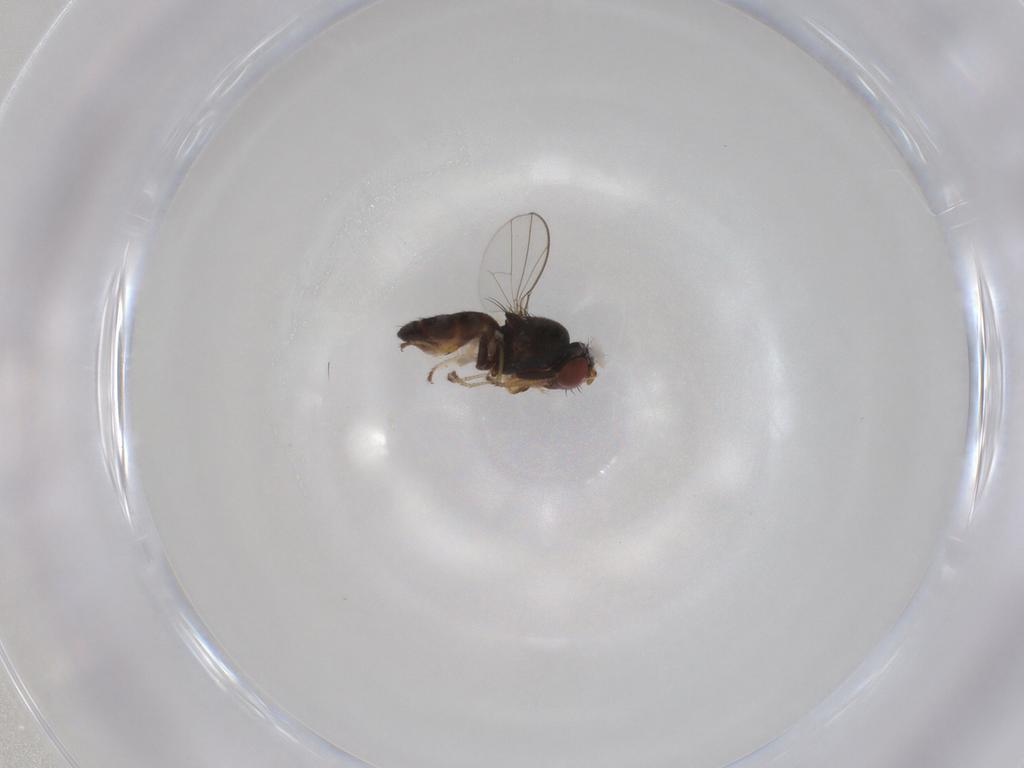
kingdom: Animalia
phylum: Arthropoda
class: Insecta
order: Diptera
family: Ephydridae
